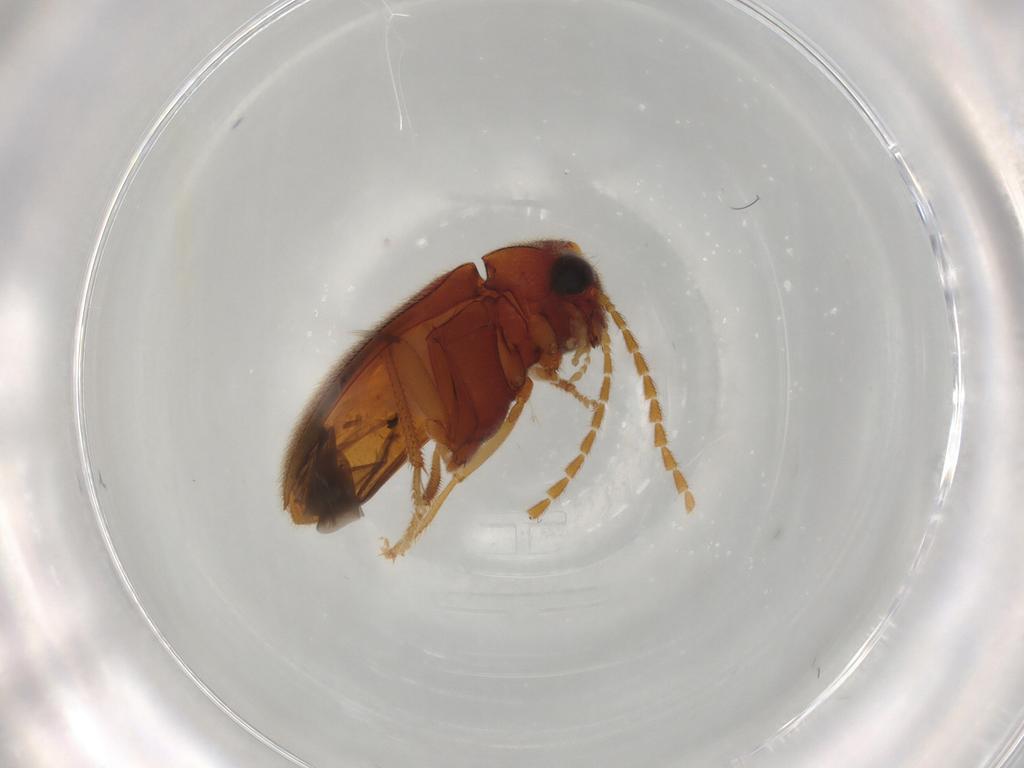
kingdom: Animalia
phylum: Arthropoda
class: Insecta
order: Coleoptera
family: Ptilodactylidae
